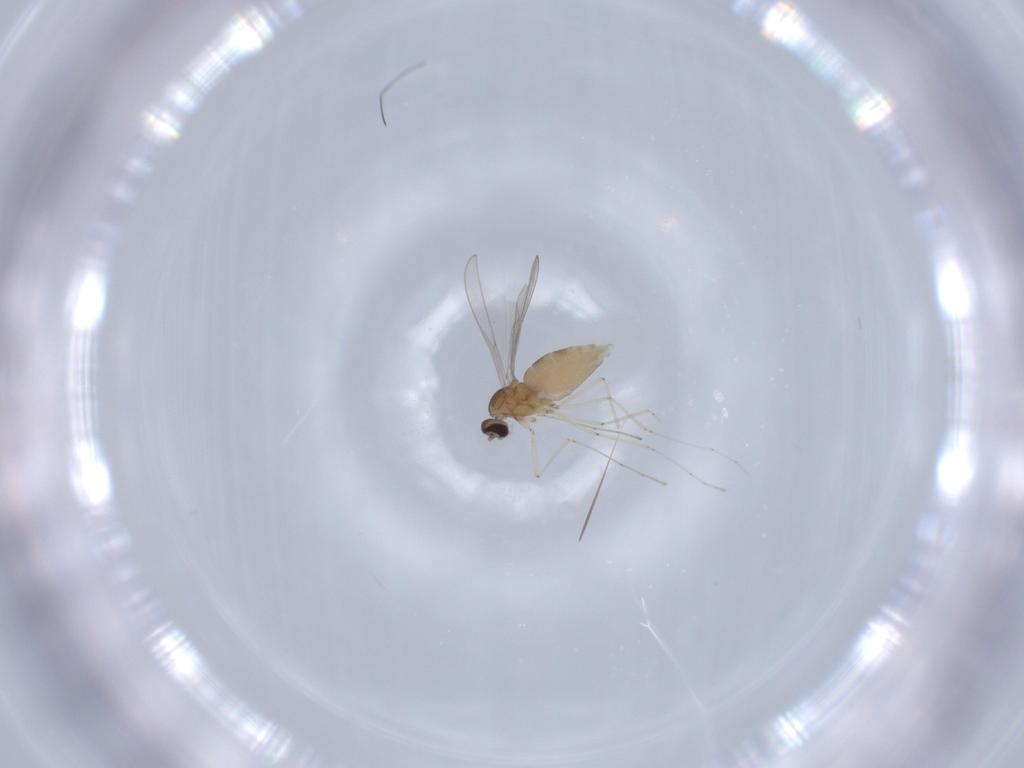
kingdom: Animalia
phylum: Arthropoda
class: Insecta
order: Diptera
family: Cecidomyiidae
